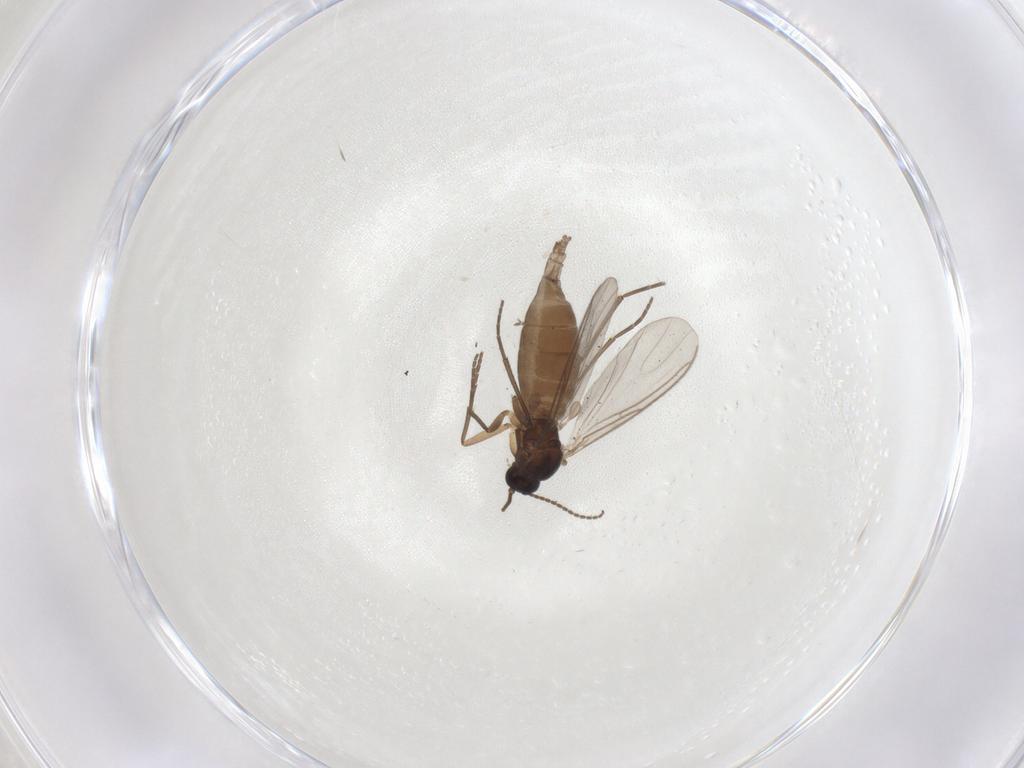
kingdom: Animalia
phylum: Arthropoda
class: Insecta
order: Diptera
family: Sciaridae
